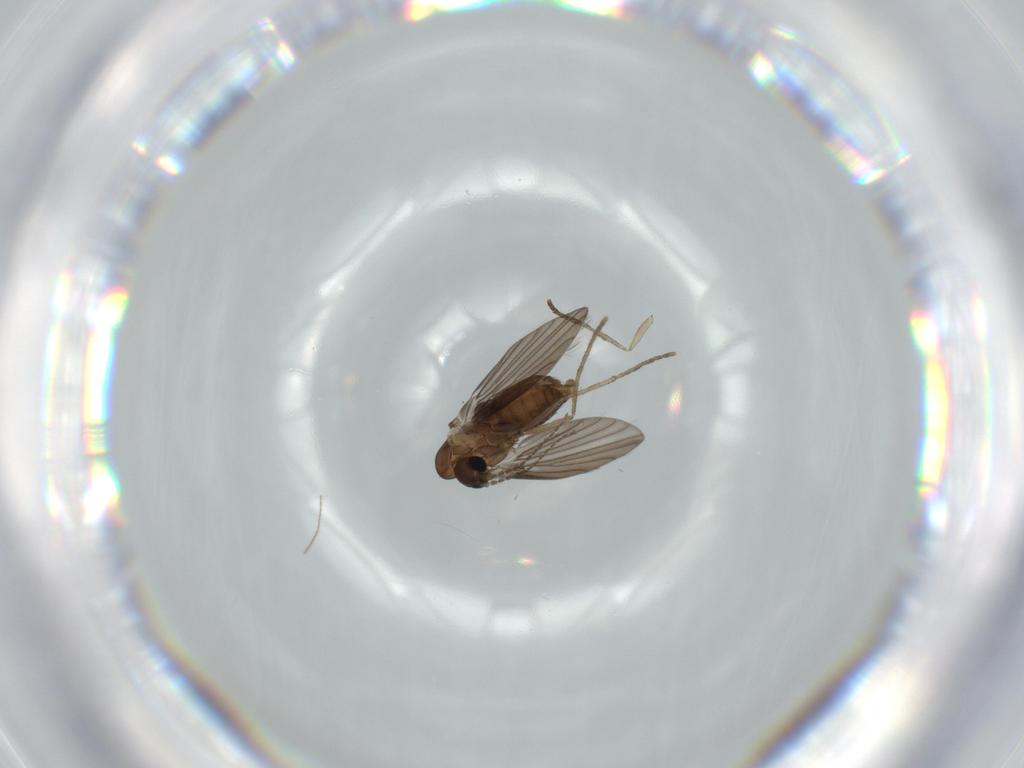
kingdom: Animalia
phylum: Arthropoda
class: Insecta
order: Diptera
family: Psychodidae
